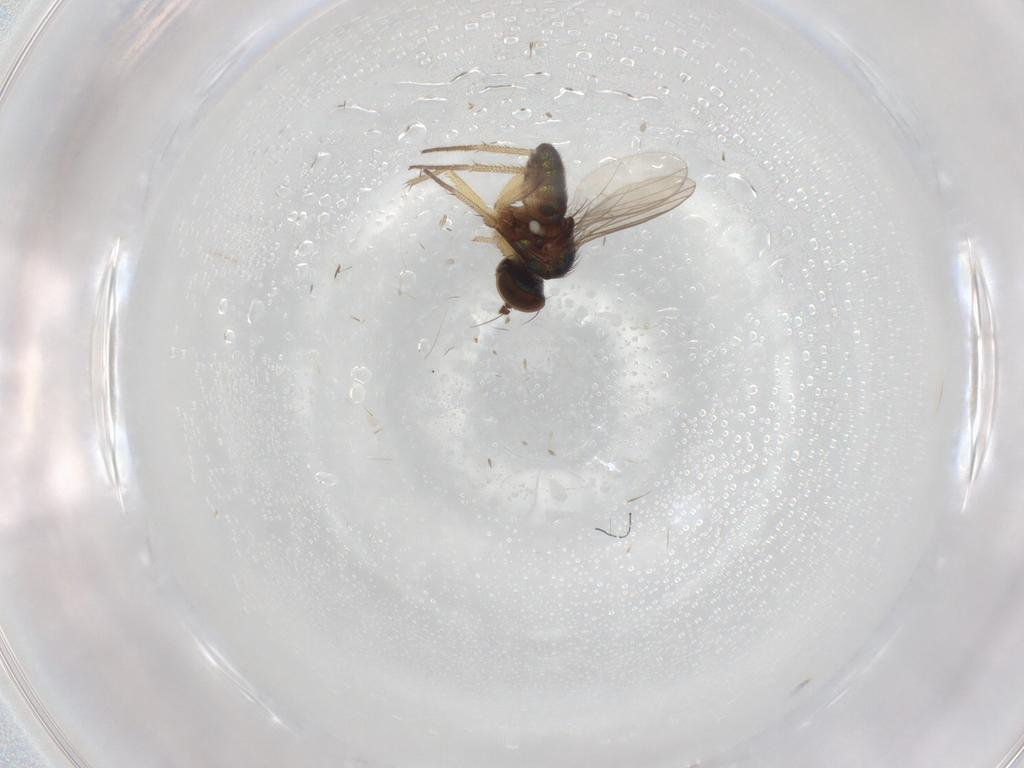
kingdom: Animalia
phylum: Arthropoda
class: Insecta
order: Diptera
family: Dolichopodidae
